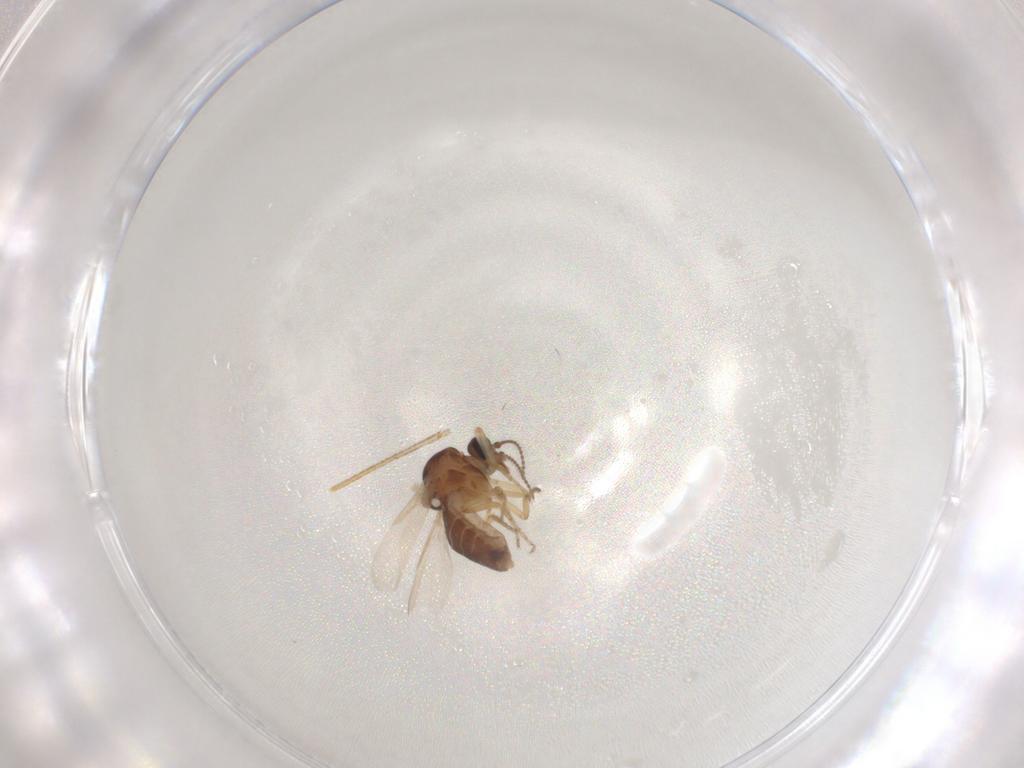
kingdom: Animalia
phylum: Arthropoda
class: Insecta
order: Diptera
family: Ceratopogonidae
